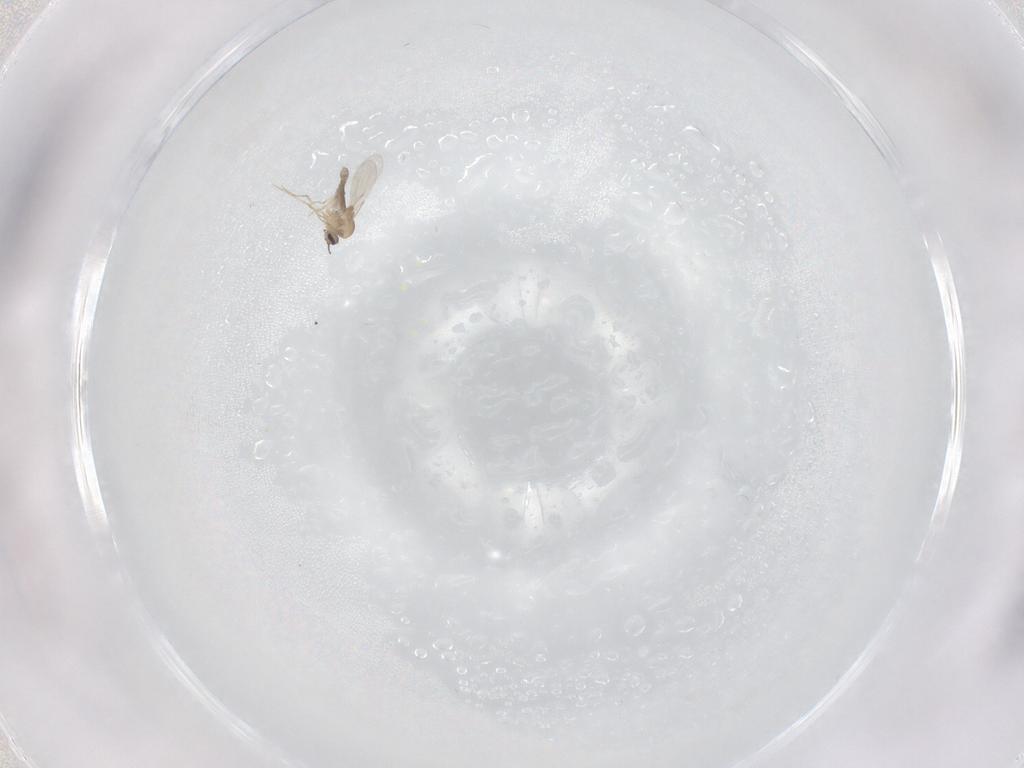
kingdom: Animalia
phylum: Arthropoda
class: Insecta
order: Diptera
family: Ceratopogonidae
